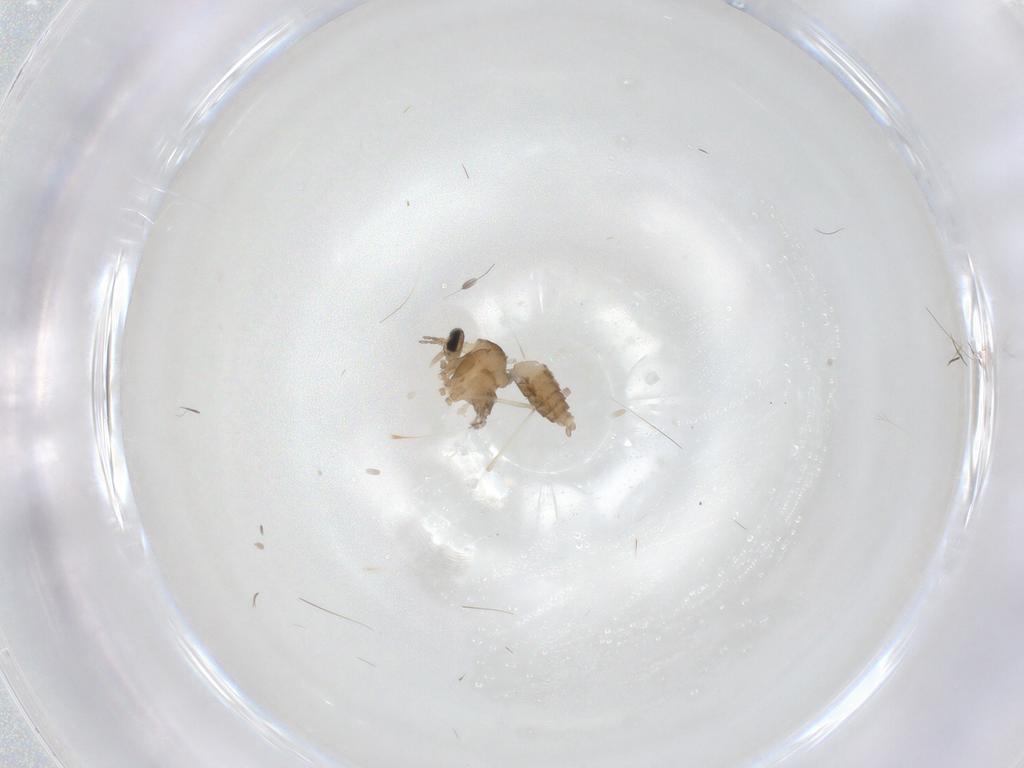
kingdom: Animalia
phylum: Arthropoda
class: Insecta
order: Diptera
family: Cecidomyiidae
